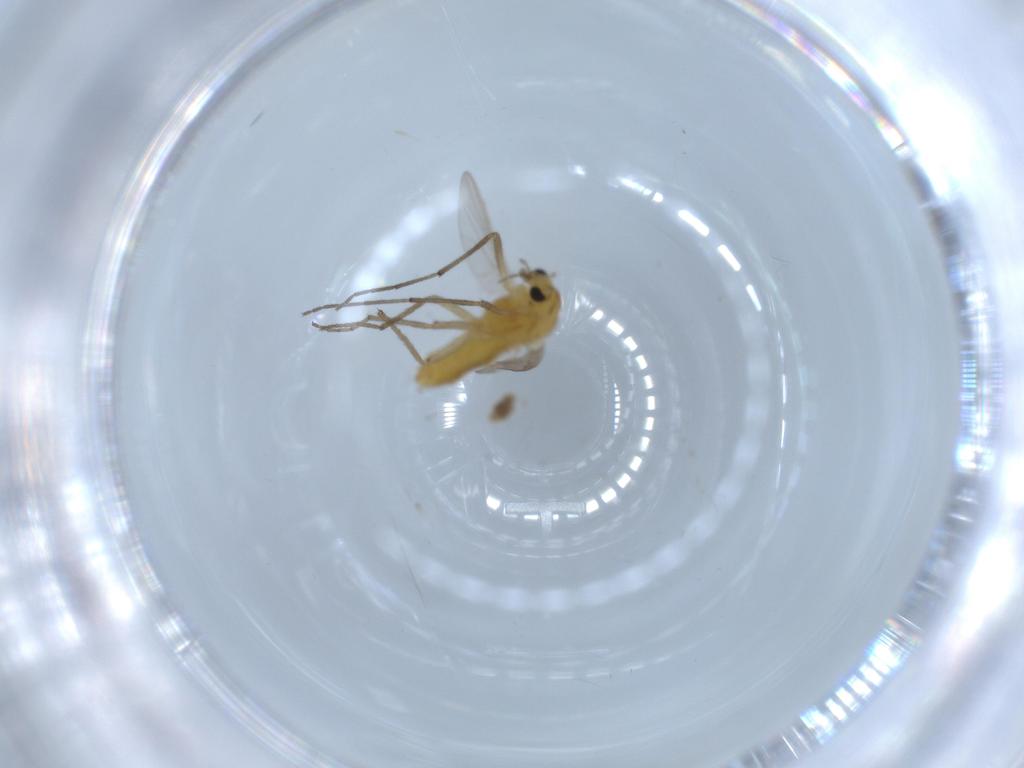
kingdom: Animalia
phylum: Arthropoda
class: Insecta
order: Diptera
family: Chironomidae
